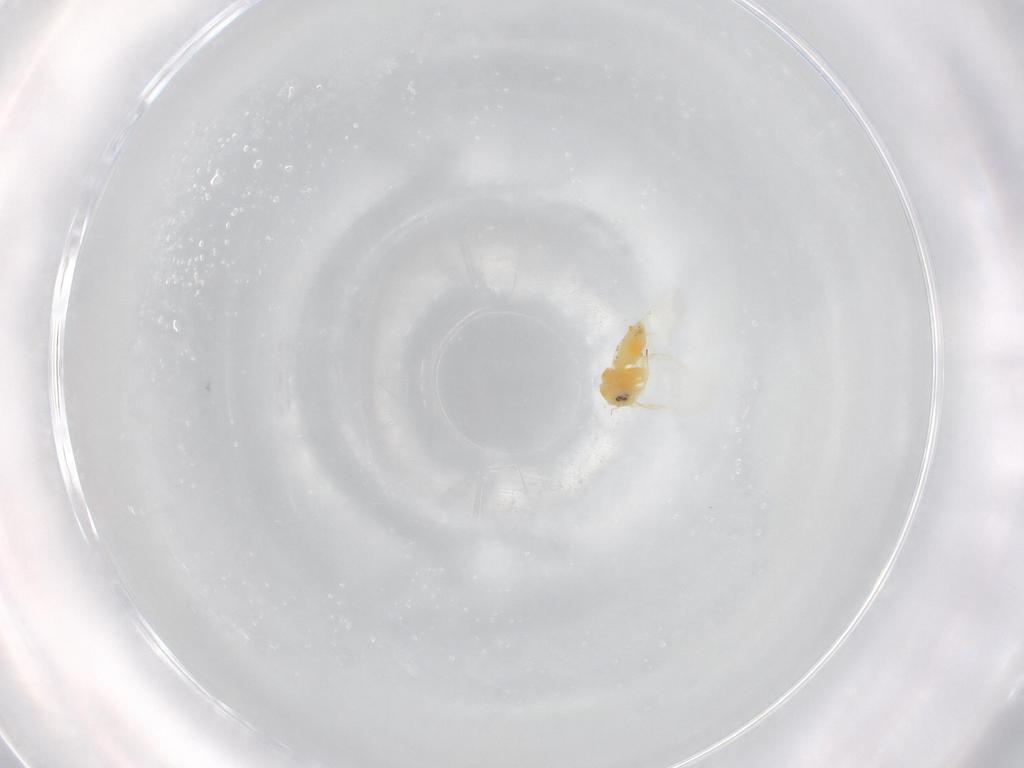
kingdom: Animalia
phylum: Arthropoda
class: Insecta
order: Hemiptera
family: Aleyrodidae
